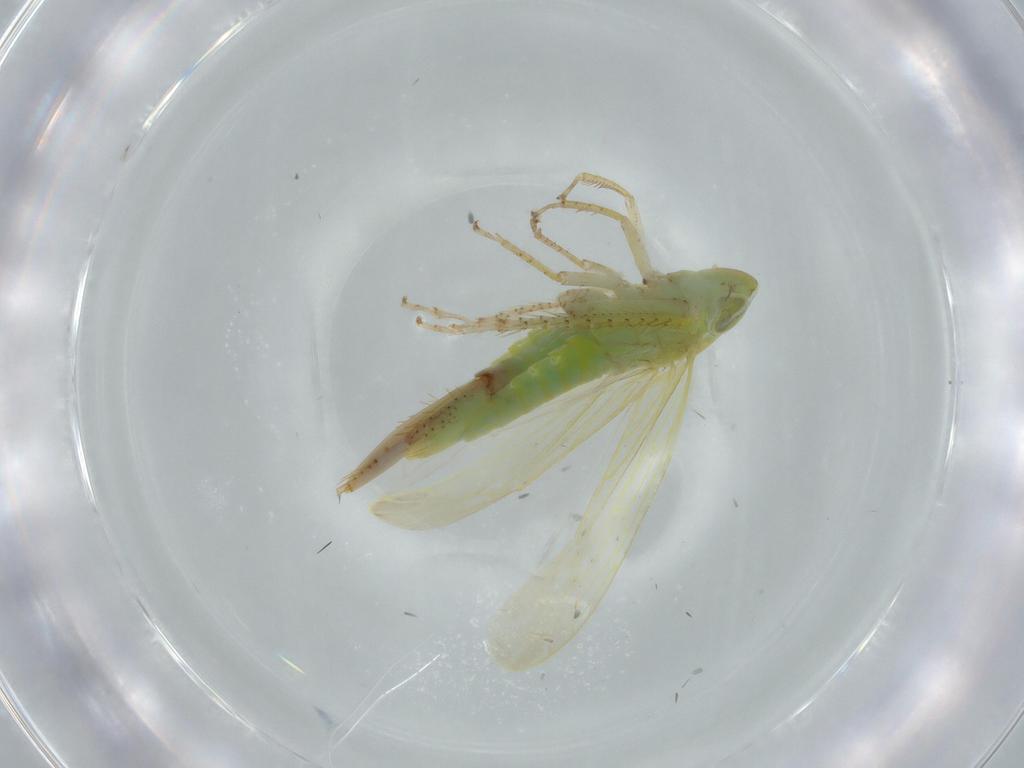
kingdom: Animalia
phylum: Arthropoda
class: Insecta
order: Hemiptera
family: Cicadellidae
